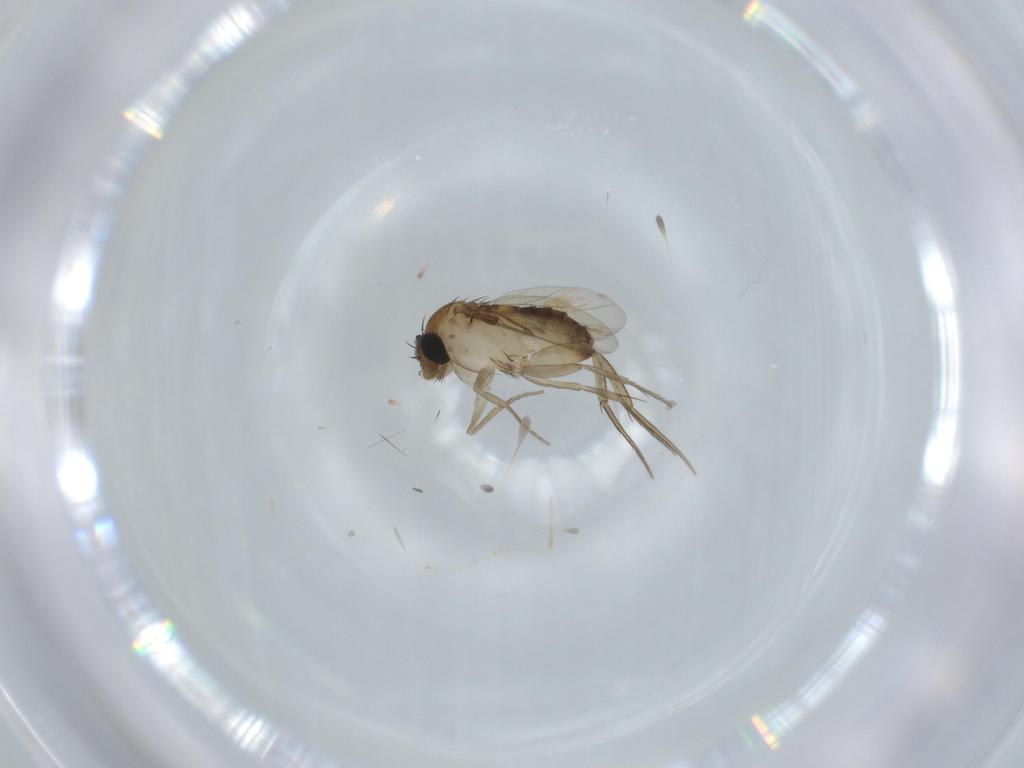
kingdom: Animalia
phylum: Arthropoda
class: Insecta
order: Diptera
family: Phoridae
